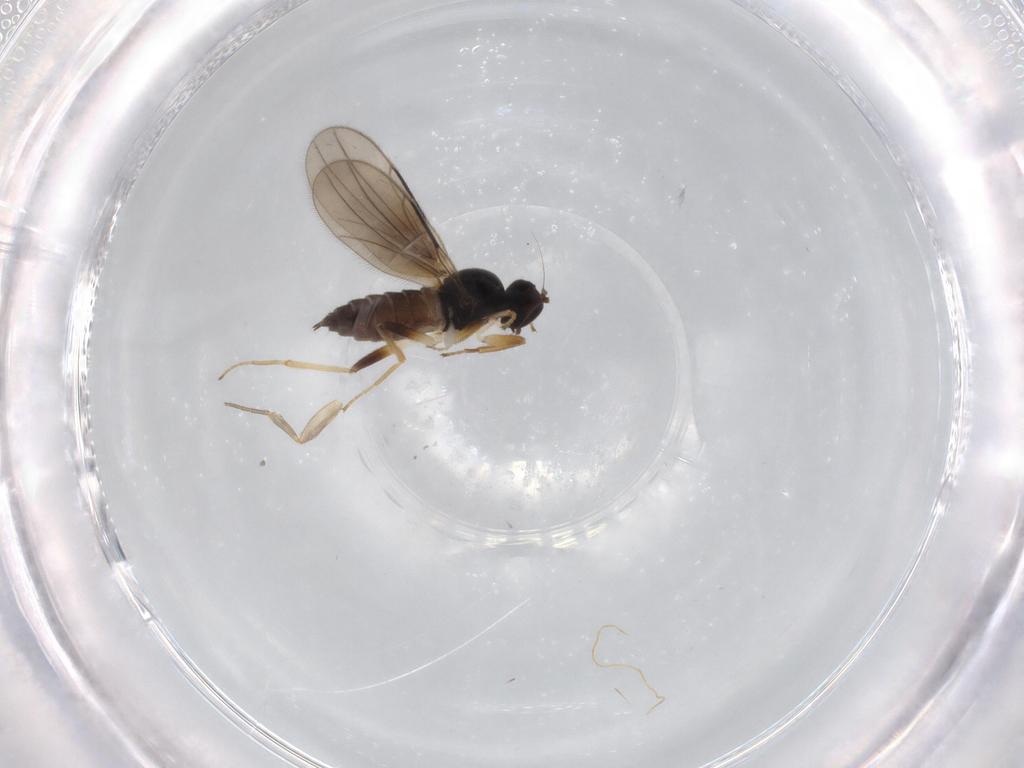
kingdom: Animalia
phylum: Arthropoda
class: Insecta
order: Diptera
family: Hybotidae
